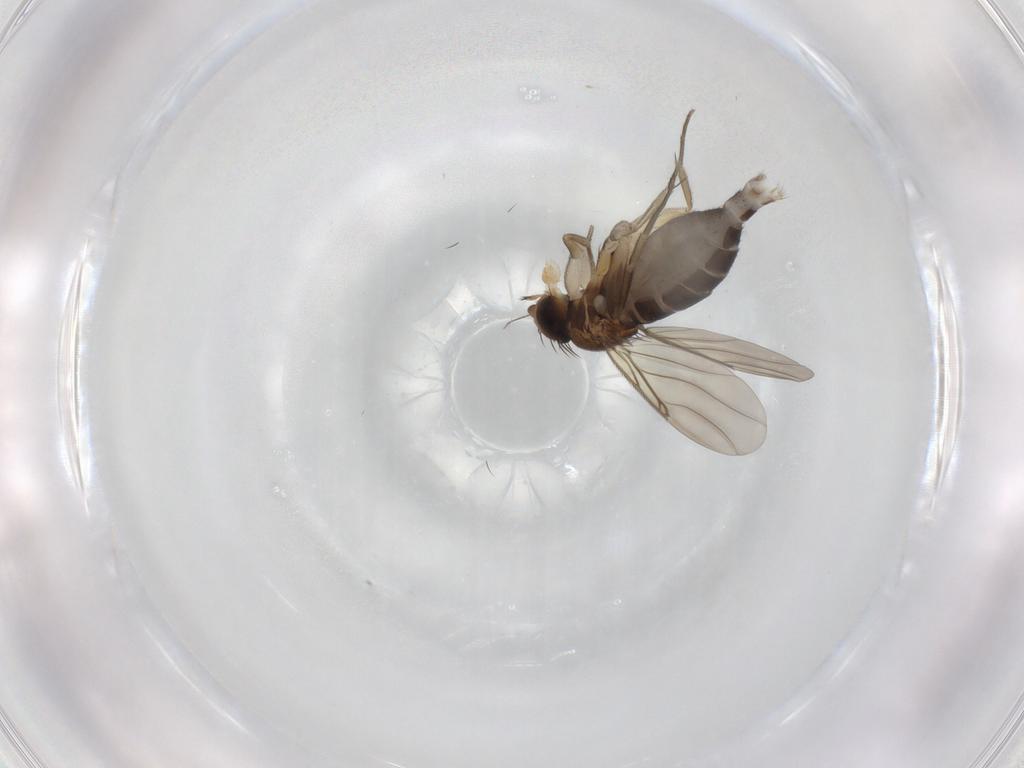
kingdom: Animalia
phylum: Arthropoda
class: Insecta
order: Diptera
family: Phoridae
